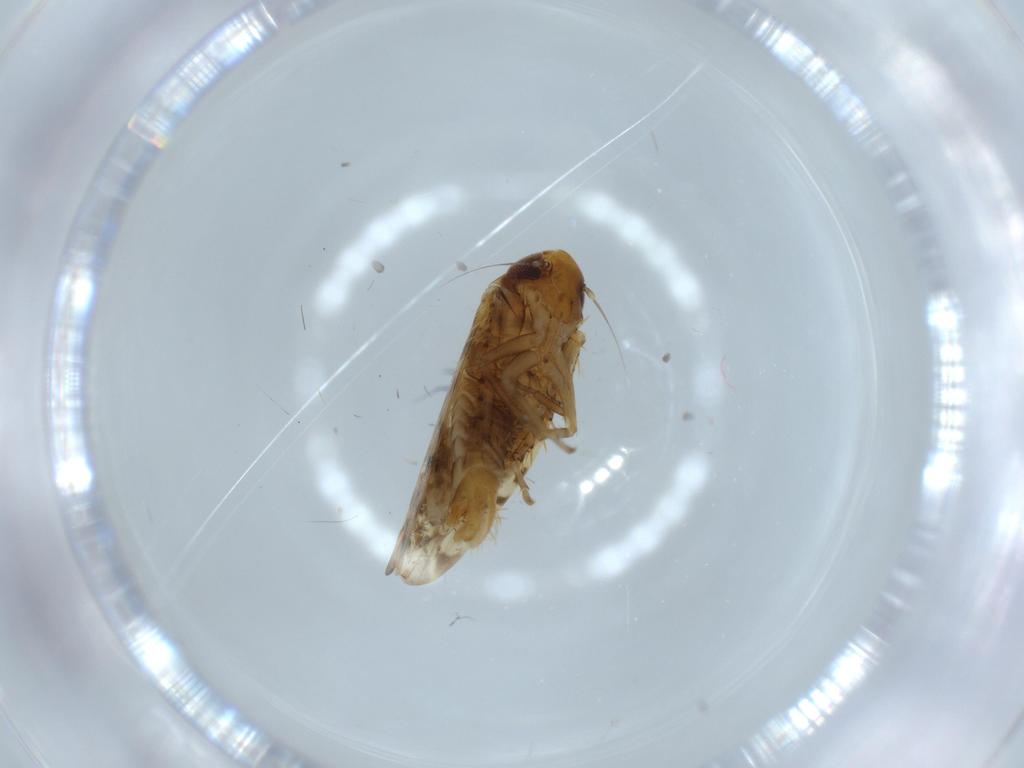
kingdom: Animalia
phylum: Arthropoda
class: Insecta
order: Hemiptera
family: Cicadellidae
